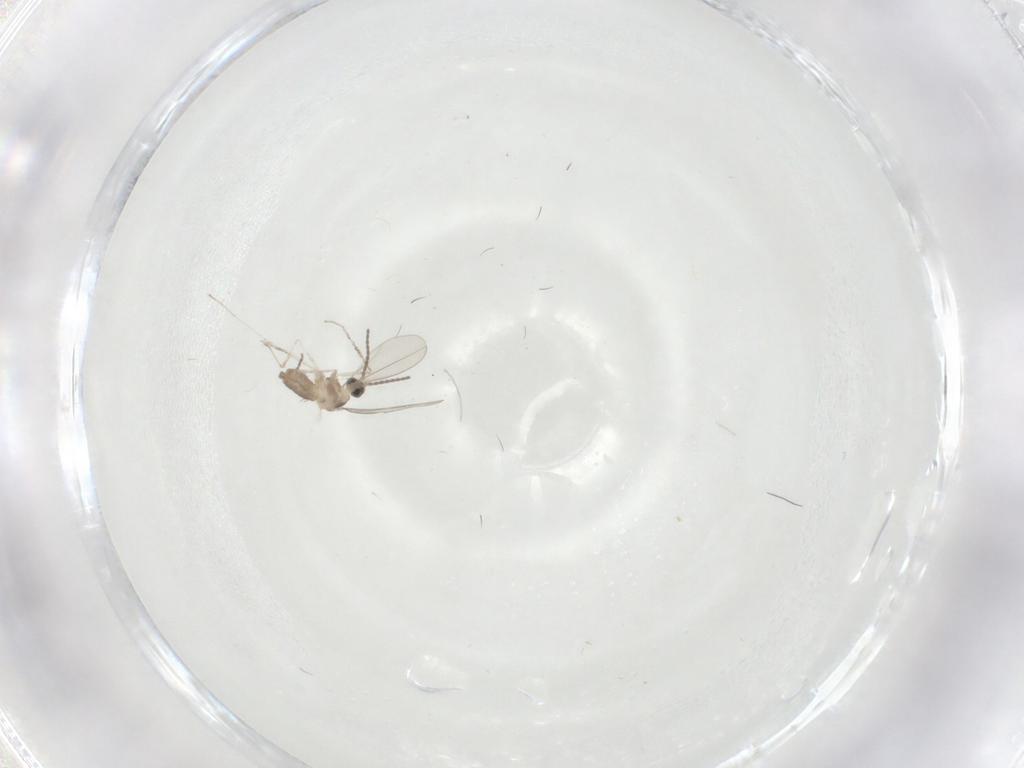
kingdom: Animalia
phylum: Arthropoda
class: Insecta
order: Diptera
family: Cecidomyiidae
